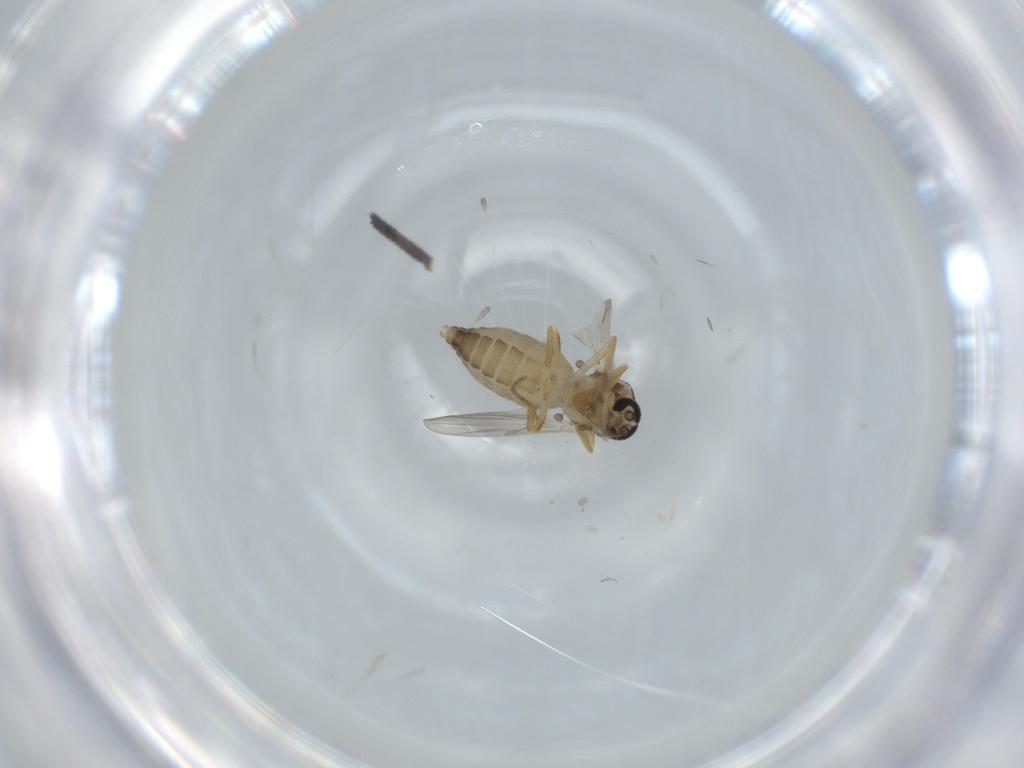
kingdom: Animalia
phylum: Arthropoda
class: Insecta
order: Diptera
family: Ceratopogonidae
